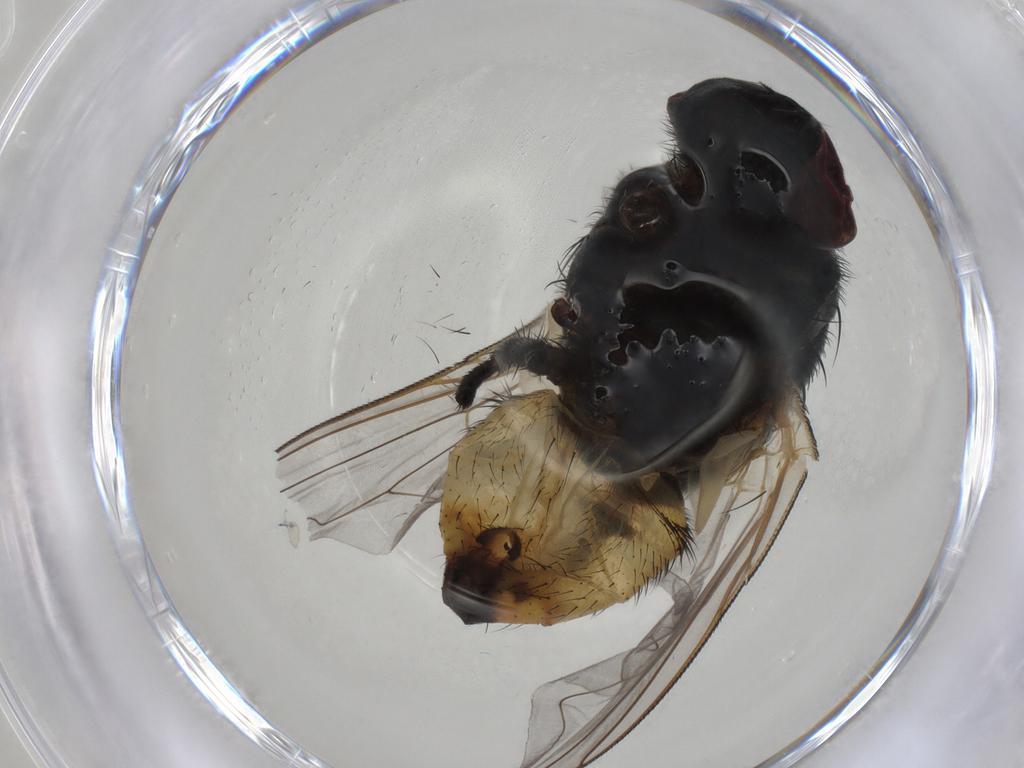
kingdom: Animalia
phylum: Arthropoda
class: Insecta
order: Diptera
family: Muscidae
